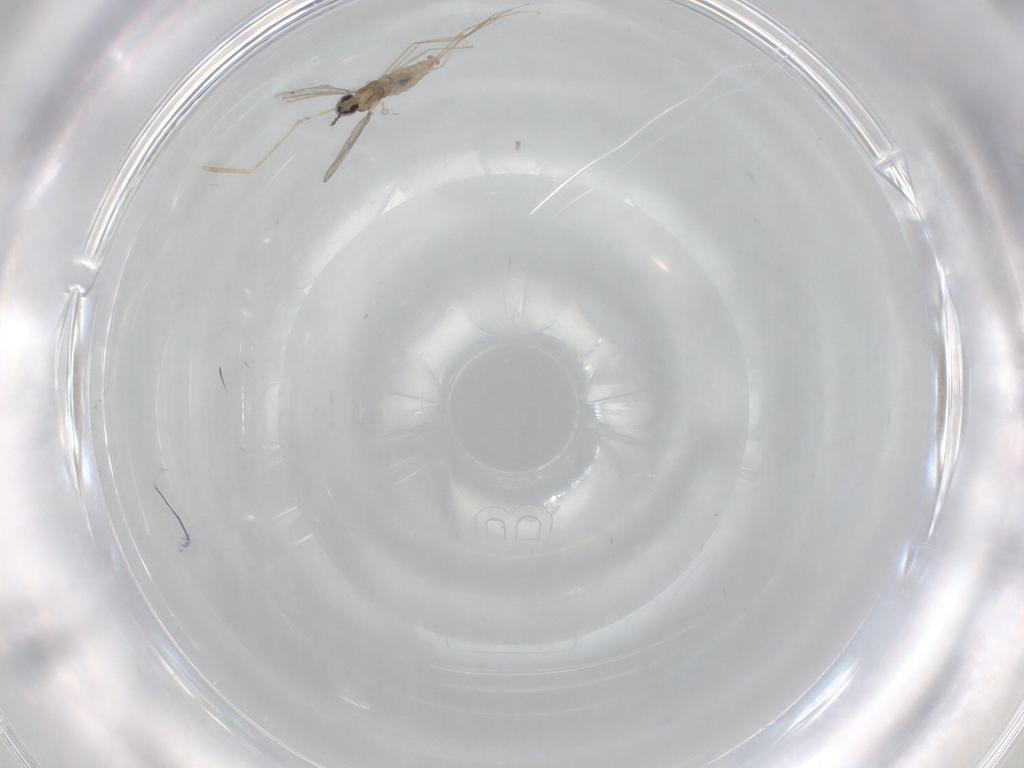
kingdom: Animalia
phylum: Arthropoda
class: Insecta
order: Diptera
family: Cecidomyiidae
